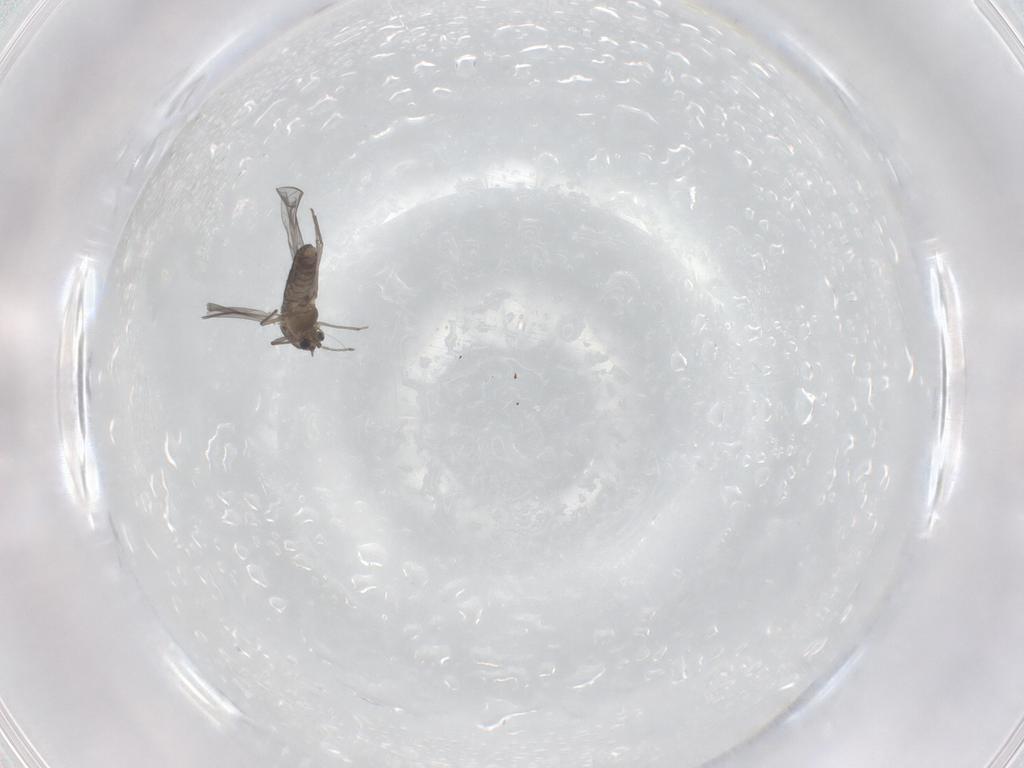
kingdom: Animalia
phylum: Arthropoda
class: Insecta
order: Diptera
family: Chironomidae
